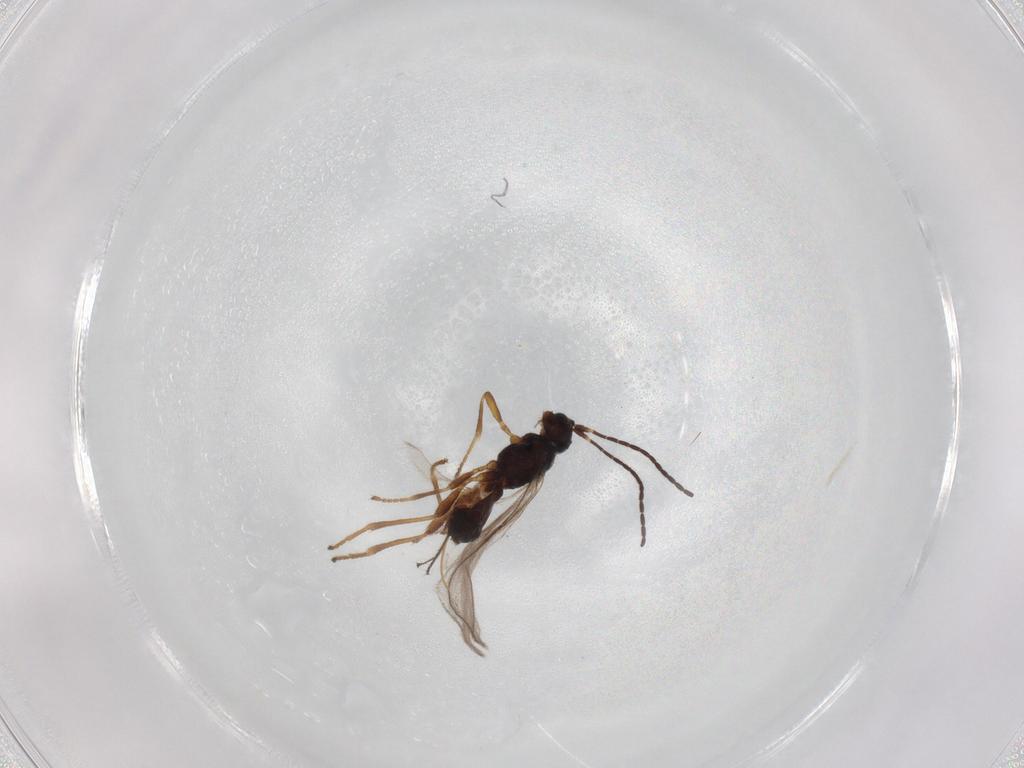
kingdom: Animalia
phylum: Arthropoda
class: Insecta
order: Hymenoptera
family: Braconidae
